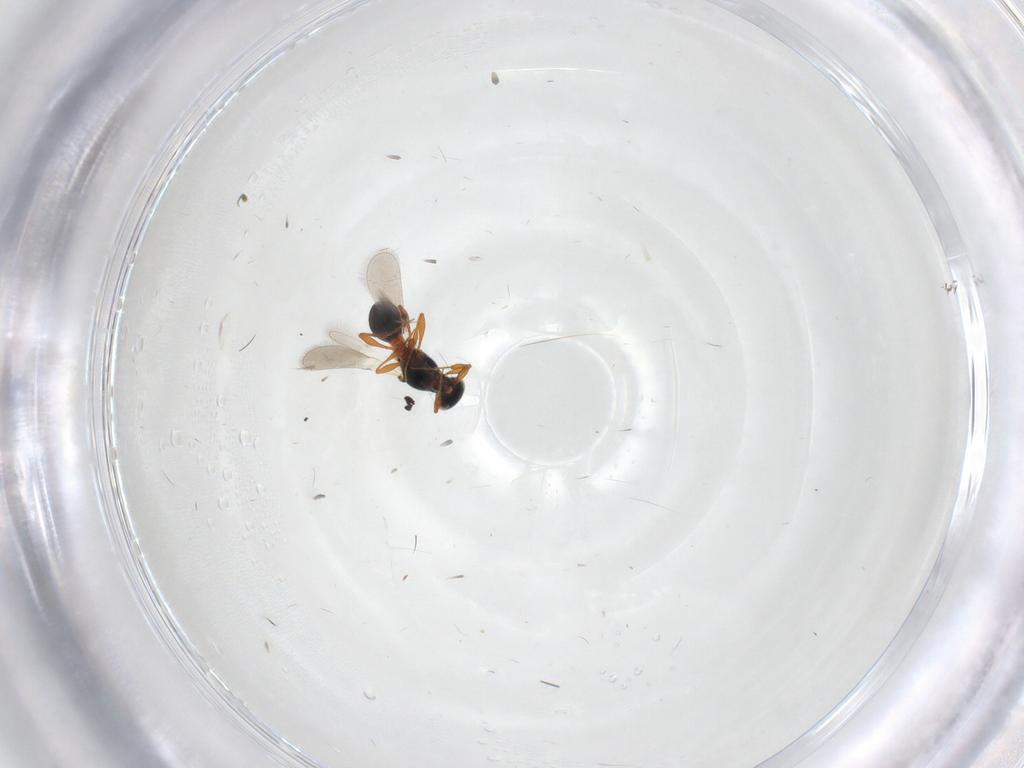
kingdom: Animalia
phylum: Arthropoda
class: Insecta
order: Hymenoptera
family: Platygastridae
